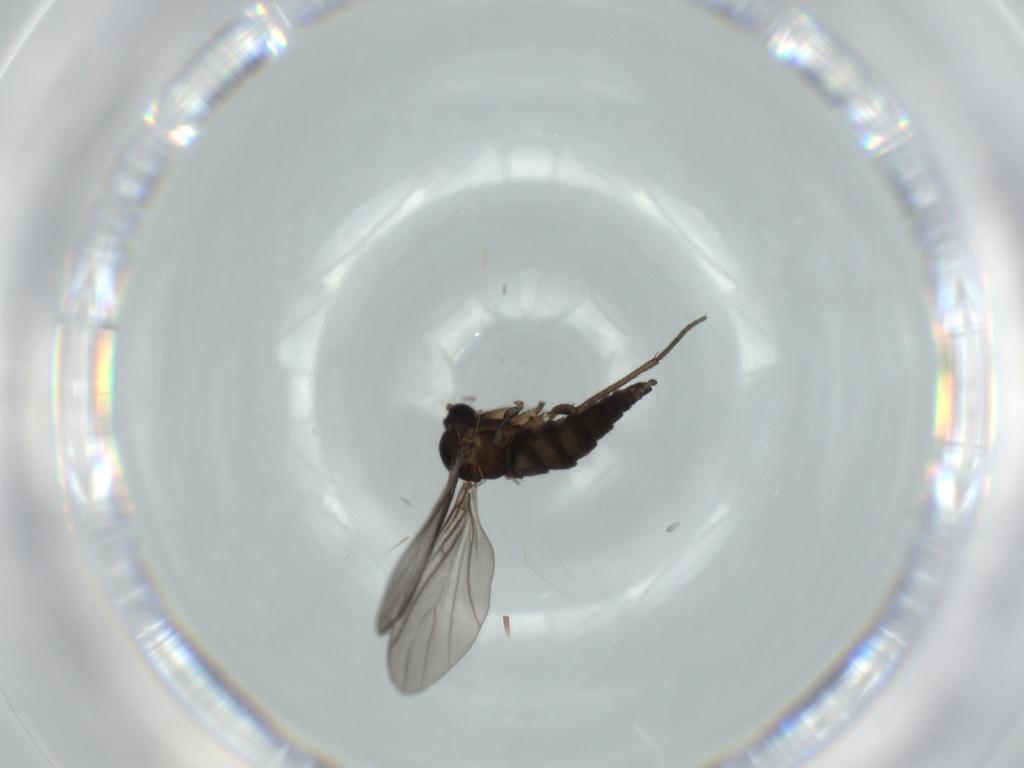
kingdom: Animalia
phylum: Arthropoda
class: Insecta
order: Diptera
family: Sciaridae
